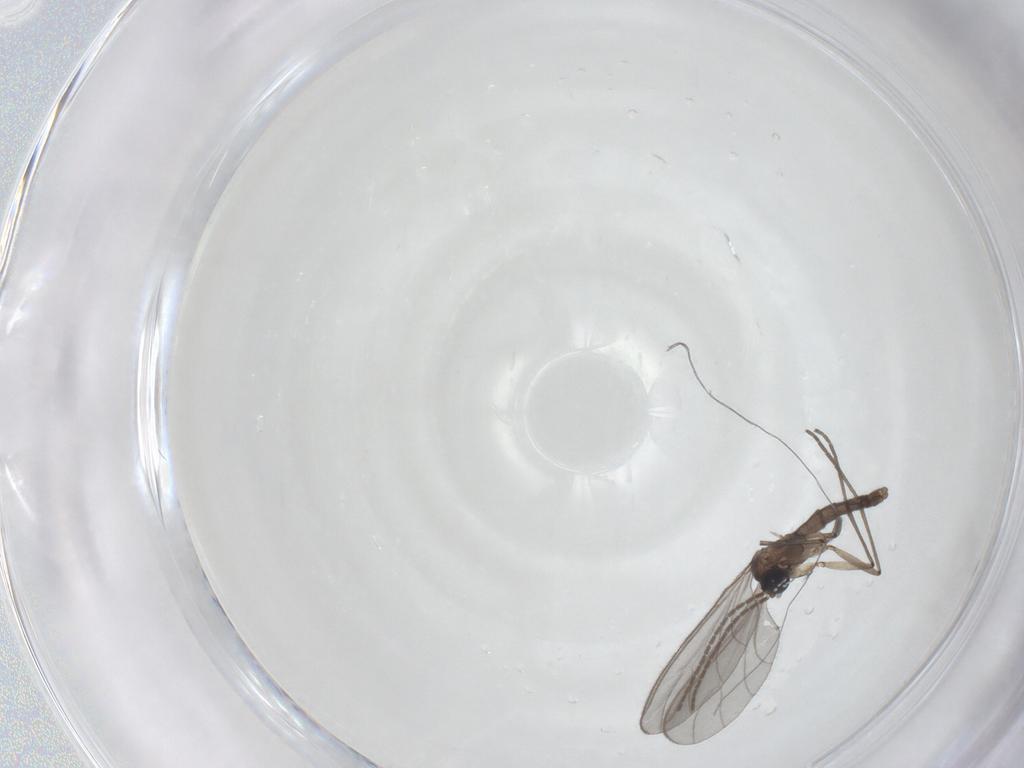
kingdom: Animalia
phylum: Arthropoda
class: Insecta
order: Diptera
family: Sciaridae
